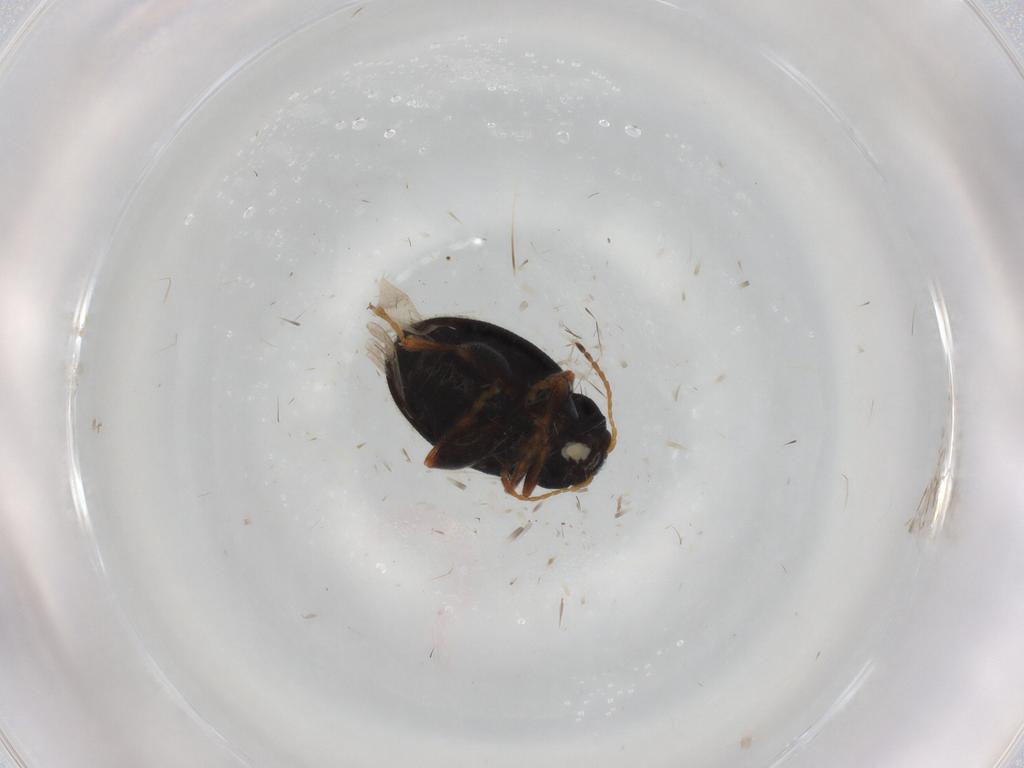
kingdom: Animalia
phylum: Arthropoda
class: Insecta
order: Coleoptera
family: Chrysomelidae
